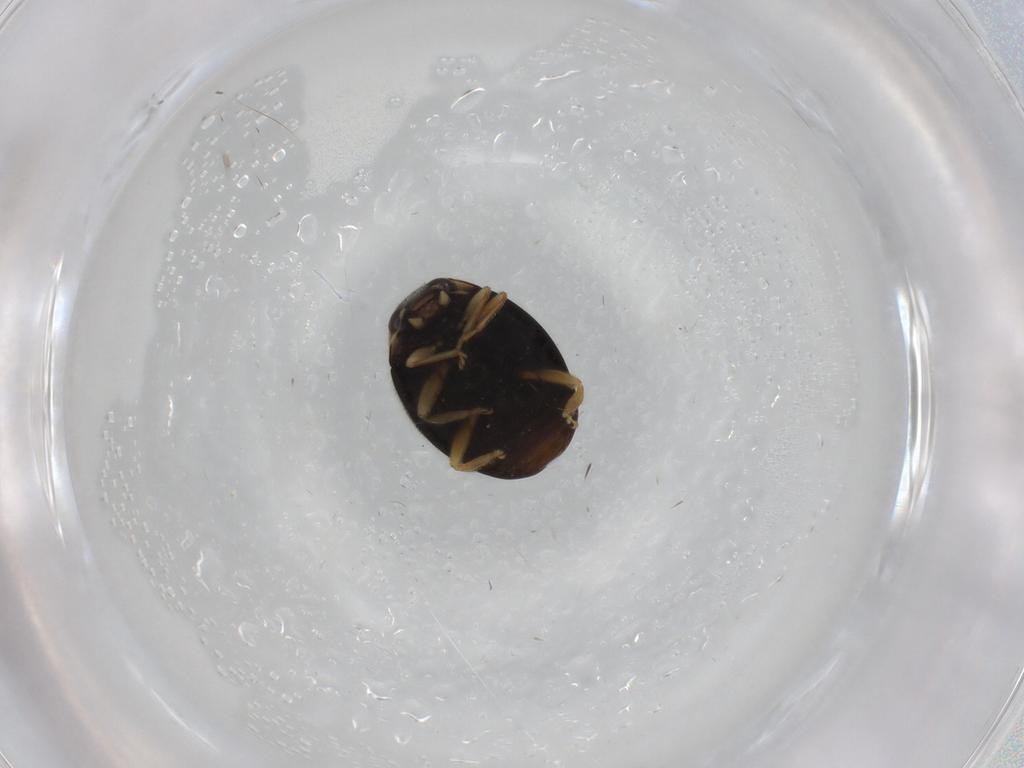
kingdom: Animalia
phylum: Arthropoda
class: Insecta
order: Coleoptera
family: Coccinellidae
